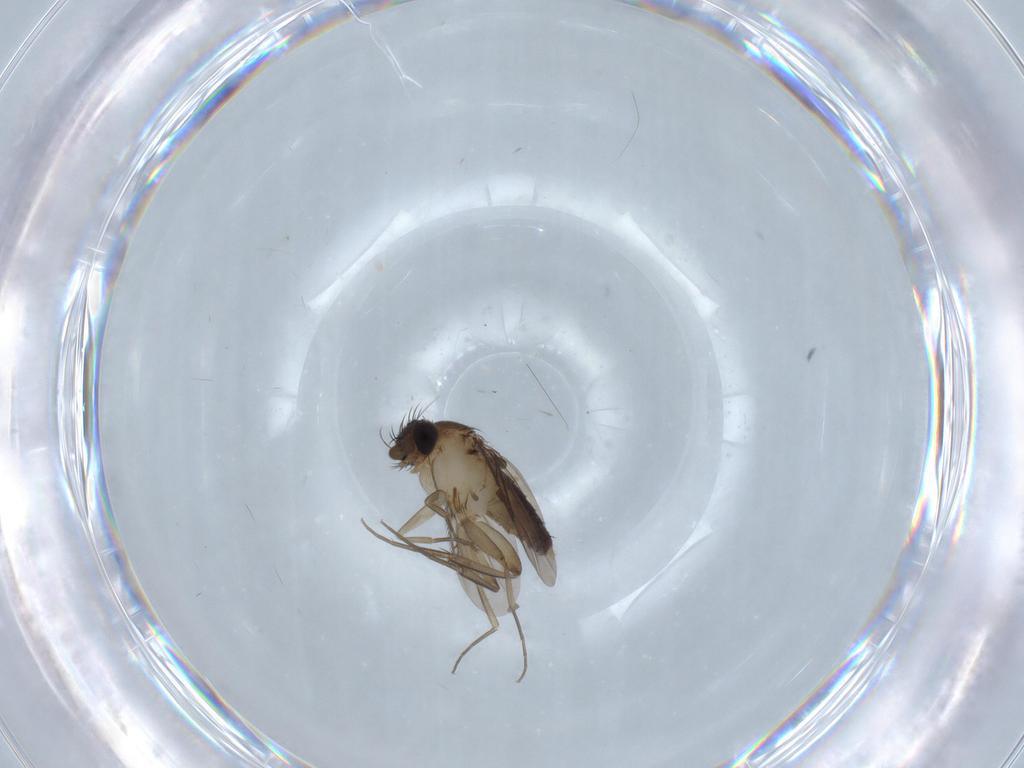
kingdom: Animalia
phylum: Arthropoda
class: Insecta
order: Diptera
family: Phoridae
